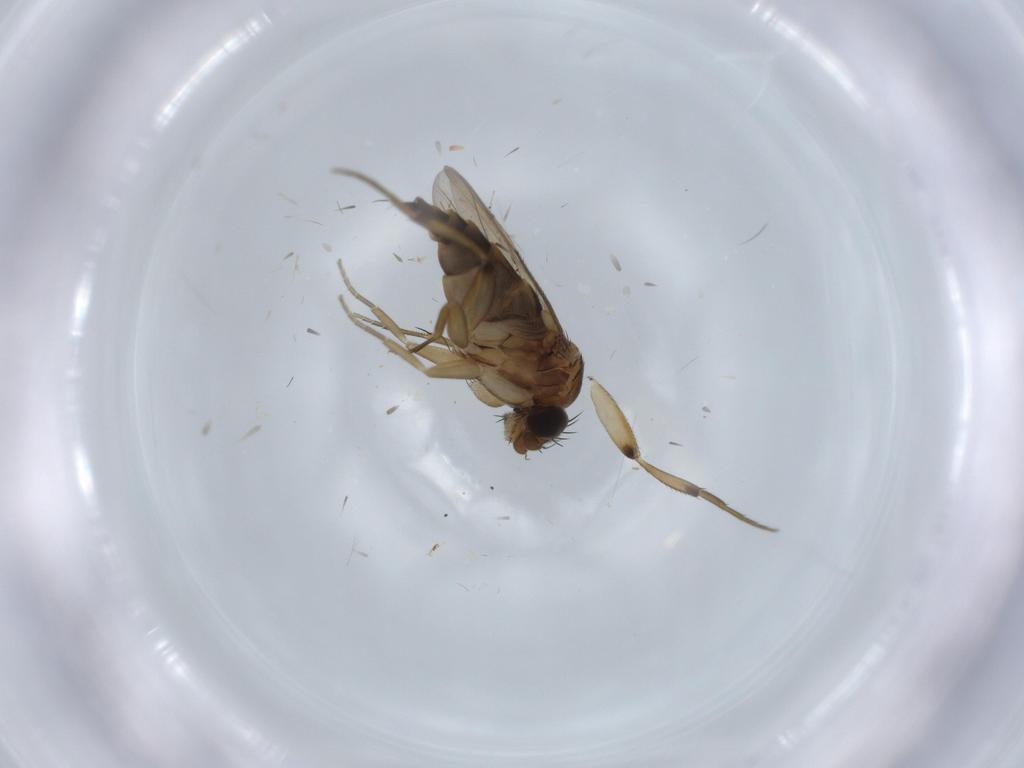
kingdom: Animalia
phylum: Arthropoda
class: Insecta
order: Diptera
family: Phoridae
